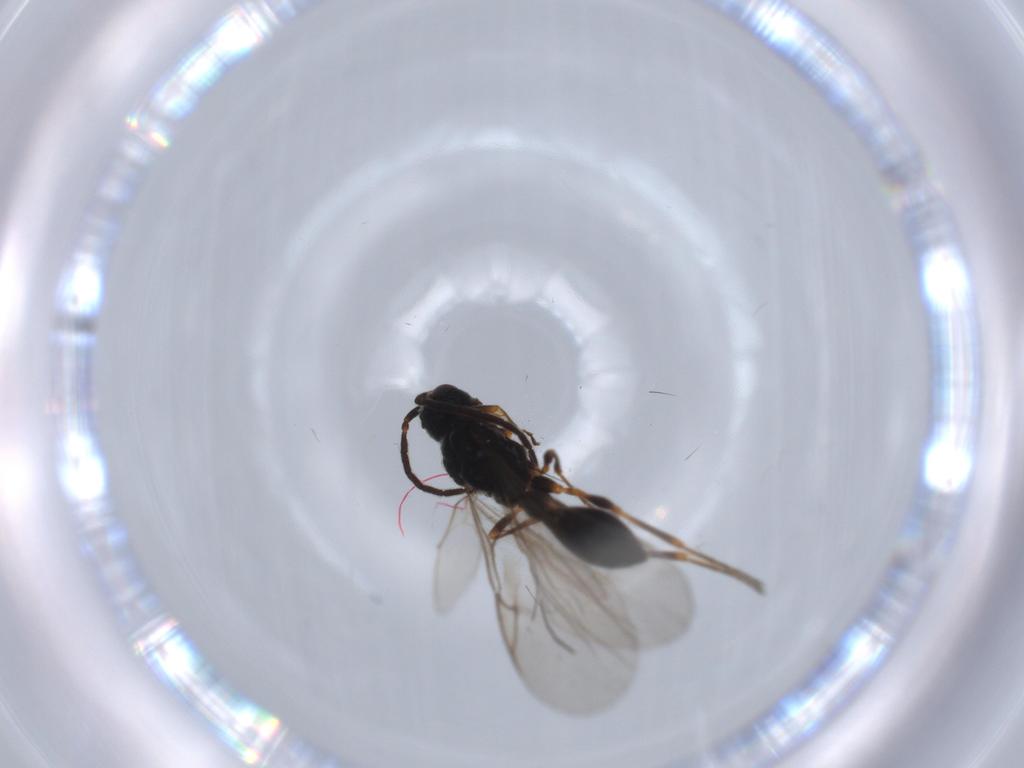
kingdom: Animalia
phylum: Arthropoda
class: Insecta
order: Hymenoptera
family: Ichneumonidae
